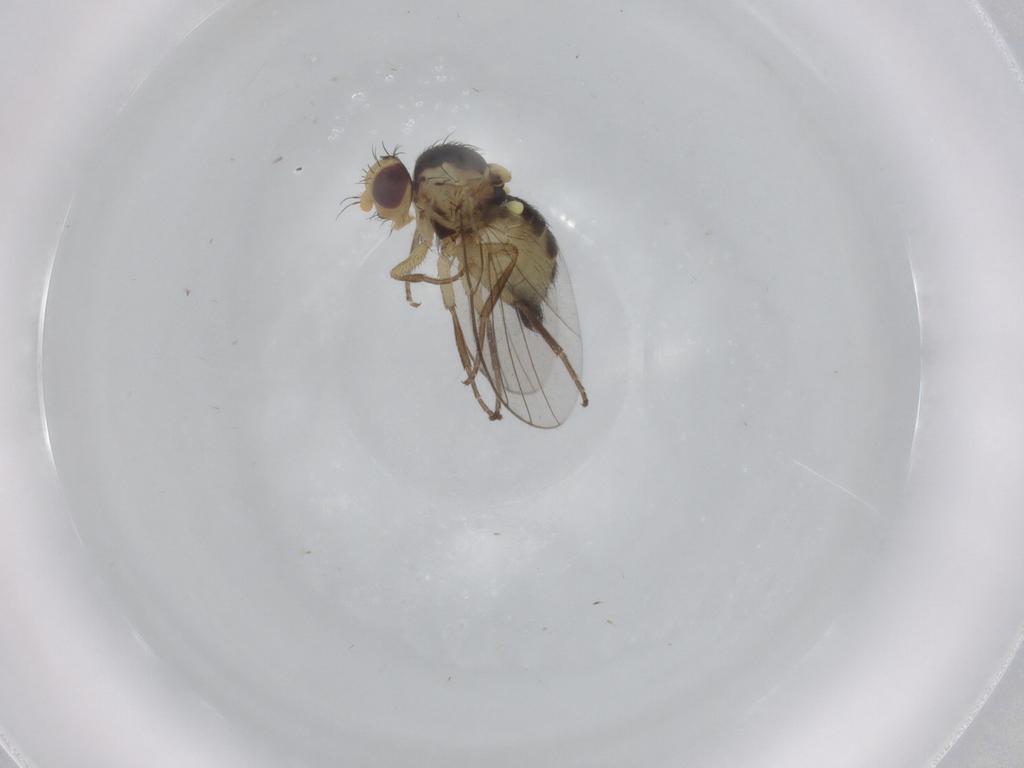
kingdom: Animalia
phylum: Arthropoda
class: Insecta
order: Diptera
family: Agromyzidae
